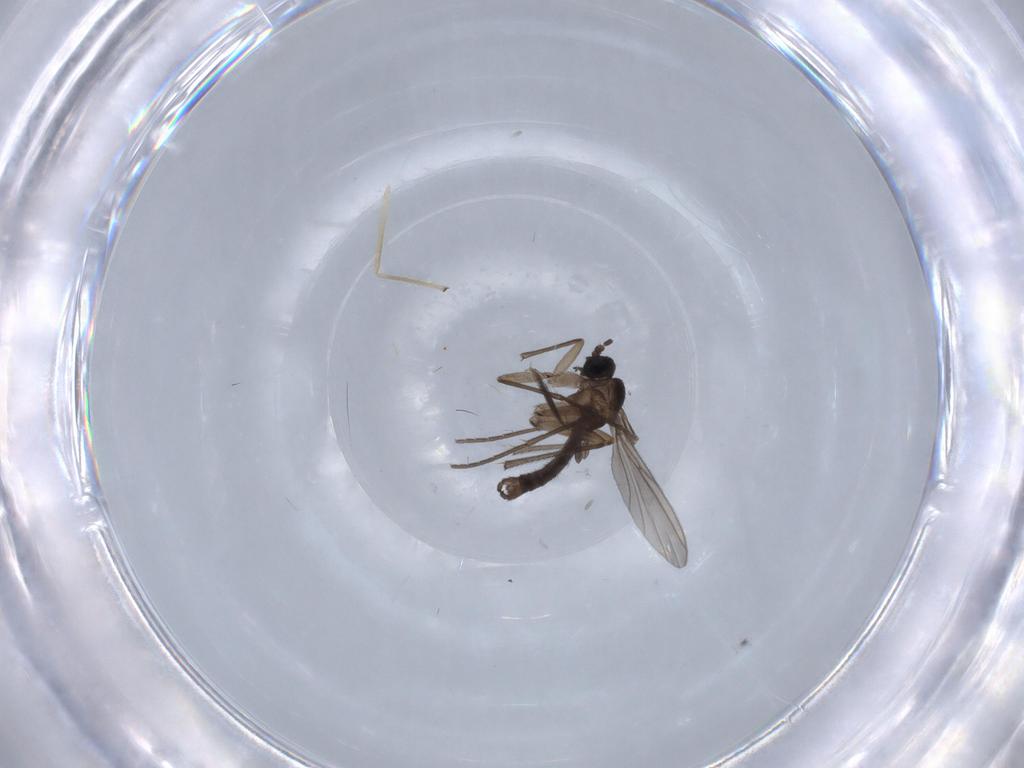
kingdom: Animalia
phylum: Arthropoda
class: Insecta
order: Diptera
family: Sciaridae
